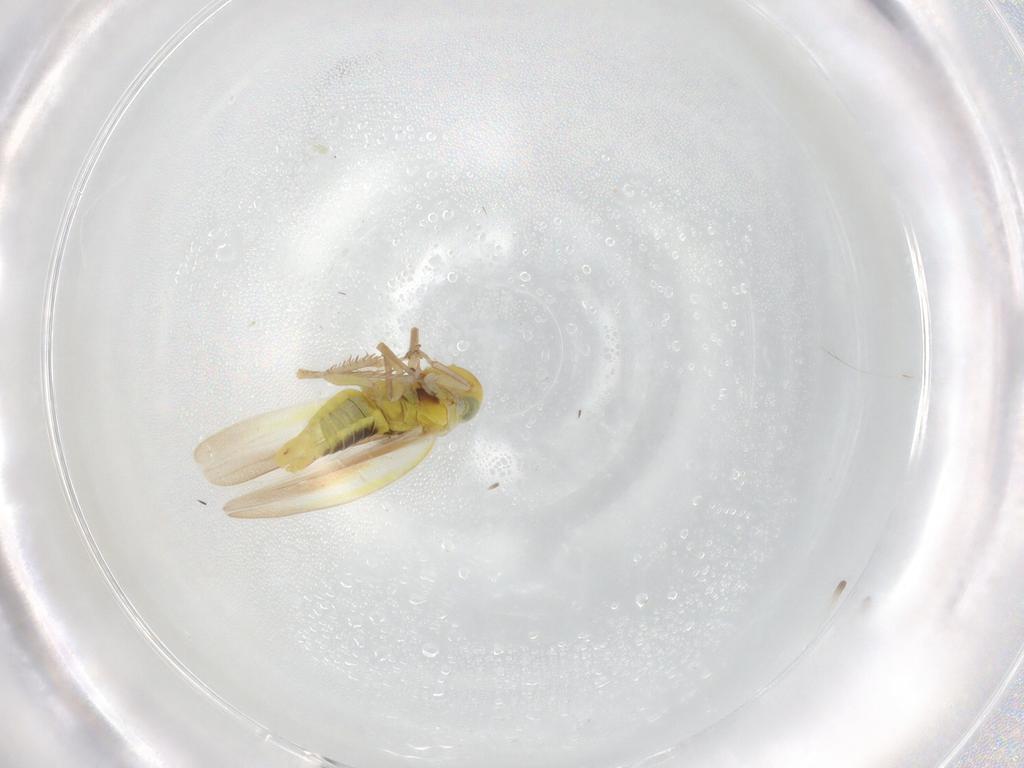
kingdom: Animalia
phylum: Arthropoda
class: Insecta
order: Hemiptera
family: Cicadellidae
